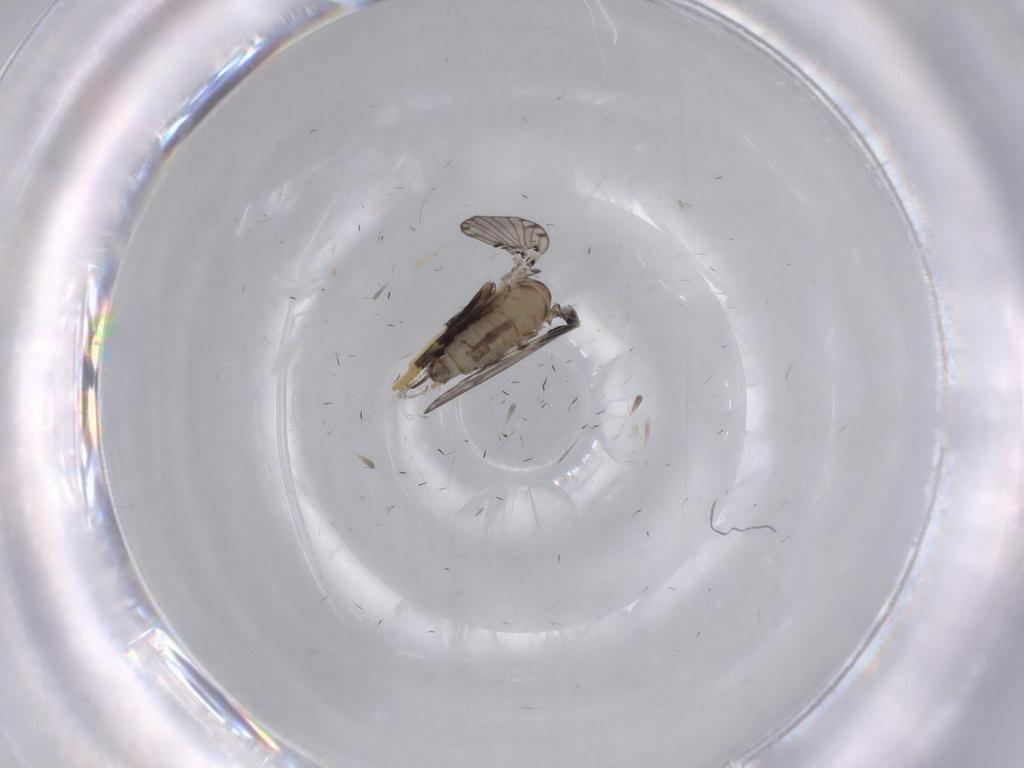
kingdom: Animalia
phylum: Arthropoda
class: Insecta
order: Diptera
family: Psychodidae
